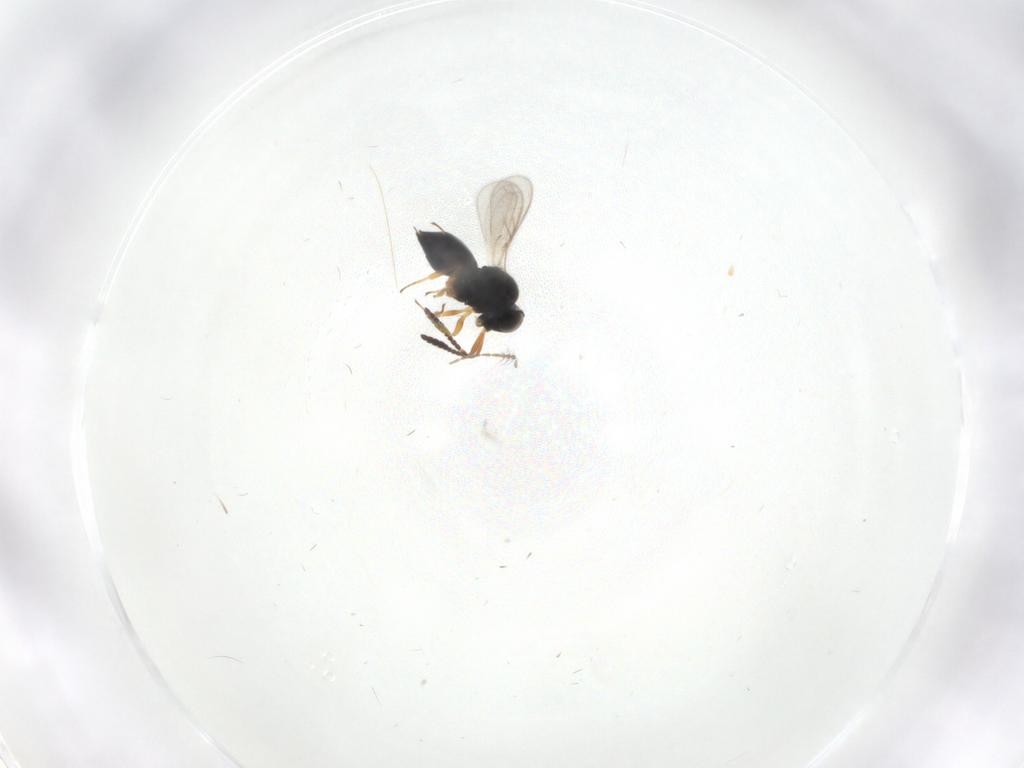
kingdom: Animalia
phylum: Arthropoda
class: Insecta
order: Hymenoptera
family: Scelionidae
